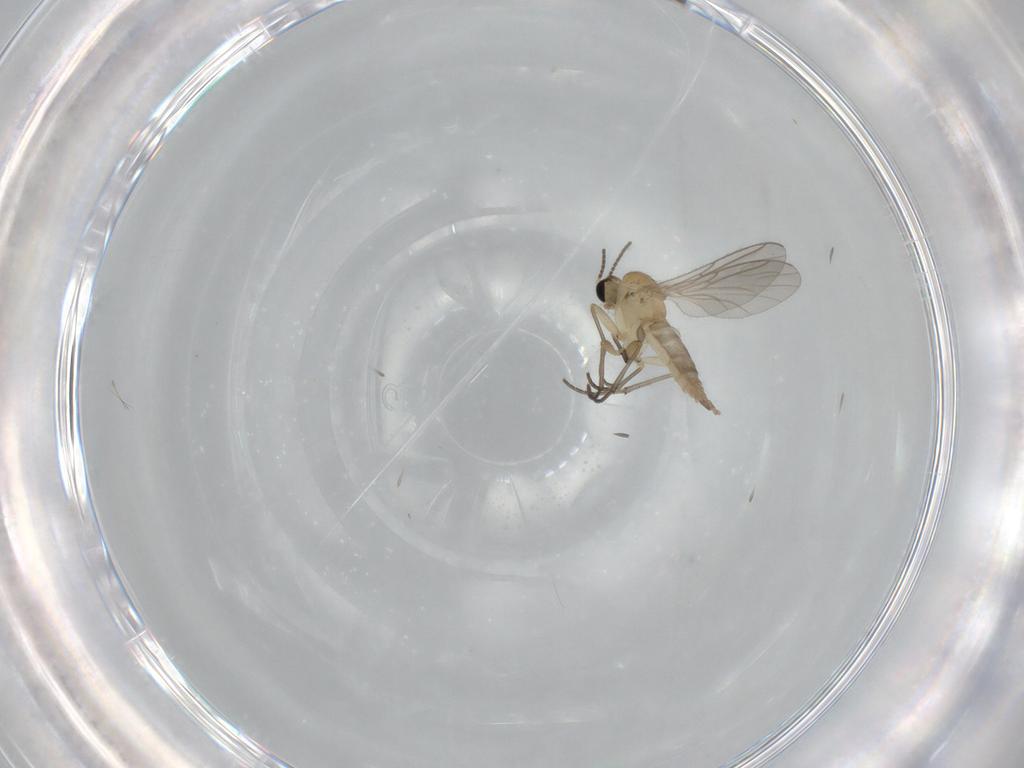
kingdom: Animalia
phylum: Arthropoda
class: Insecta
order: Diptera
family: Sciaridae
